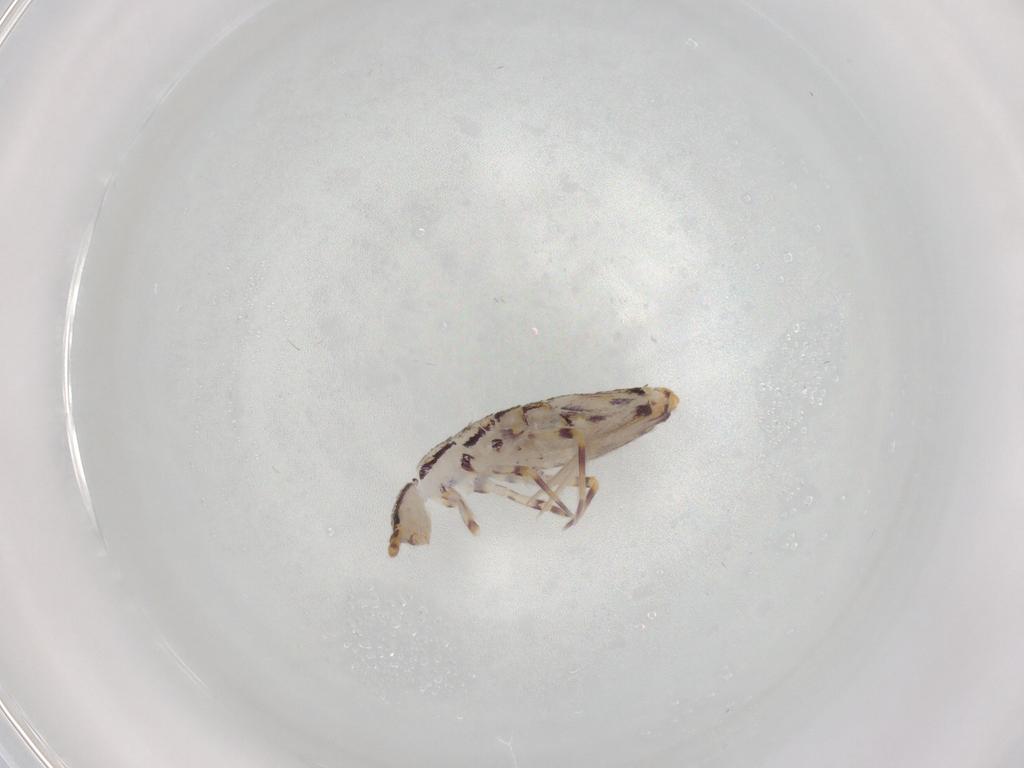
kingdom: Animalia
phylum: Arthropoda
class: Collembola
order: Entomobryomorpha
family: Entomobryidae
